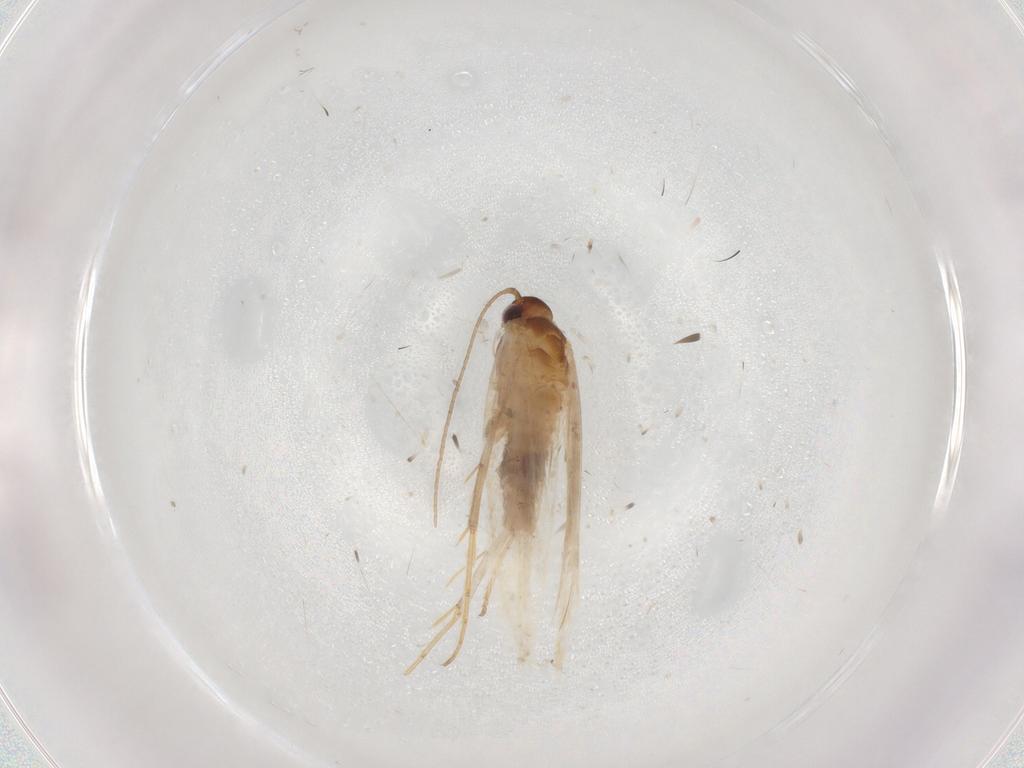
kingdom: Animalia
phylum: Arthropoda
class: Insecta
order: Lepidoptera
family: Gelechiidae
